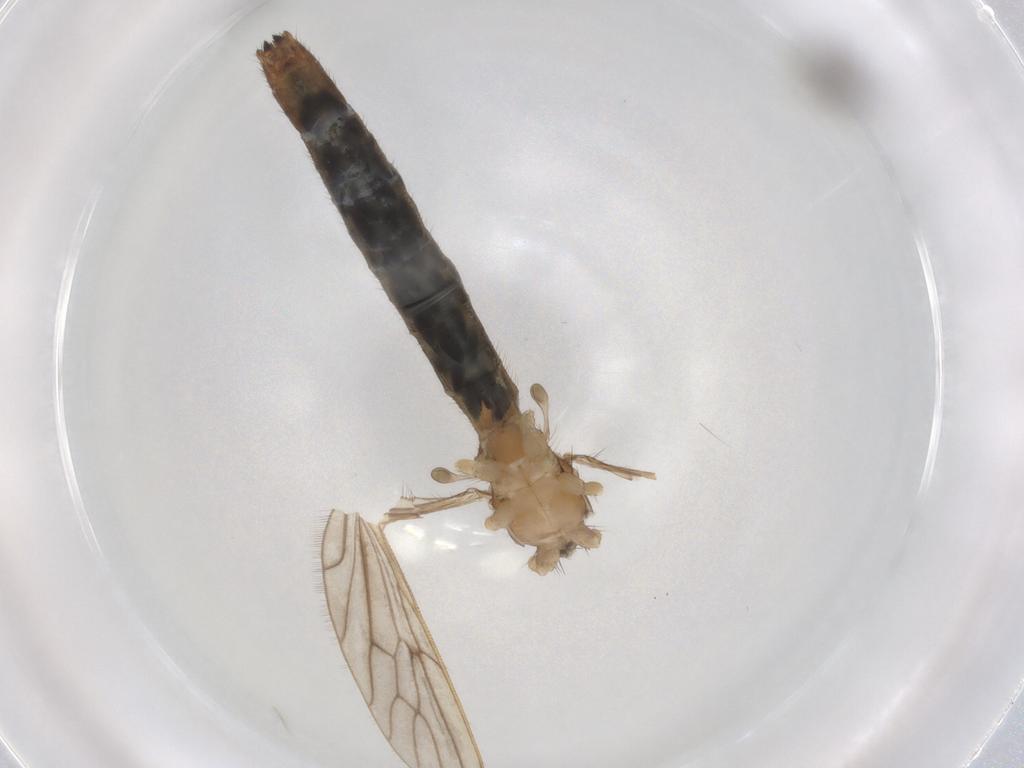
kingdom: Animalia
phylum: Arthropoda
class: Insecta
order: Diptera
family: Limoniidae
